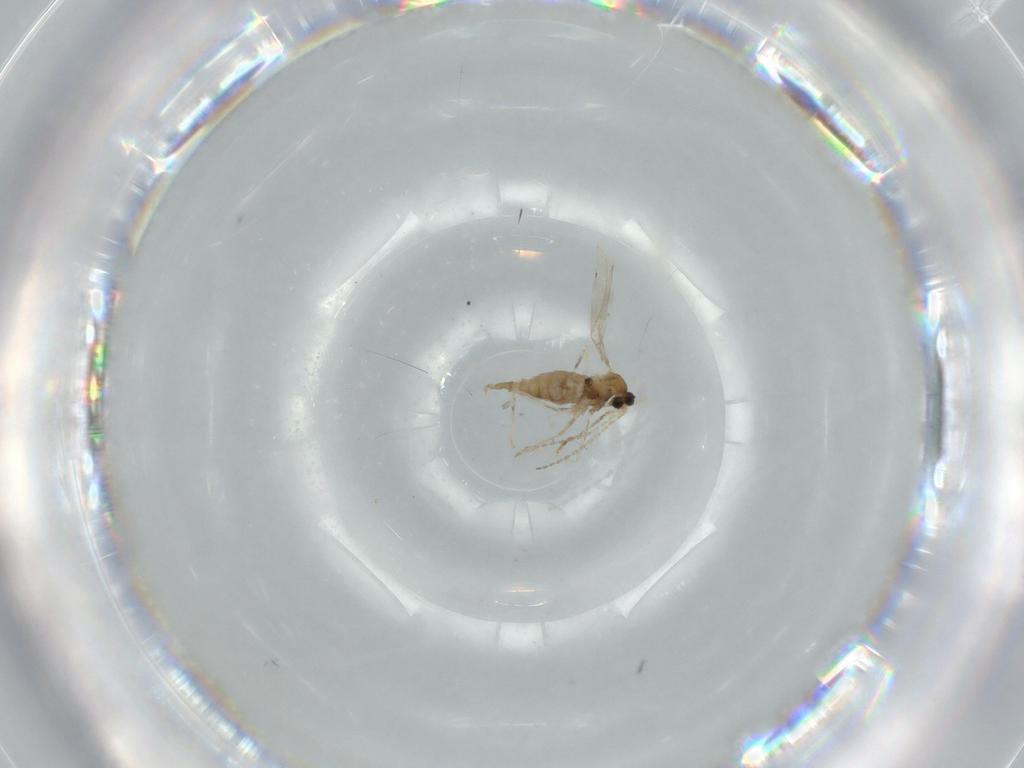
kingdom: Animalia
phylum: Arthropoda
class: Insecta
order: Diptera
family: Cecidomyiidae
